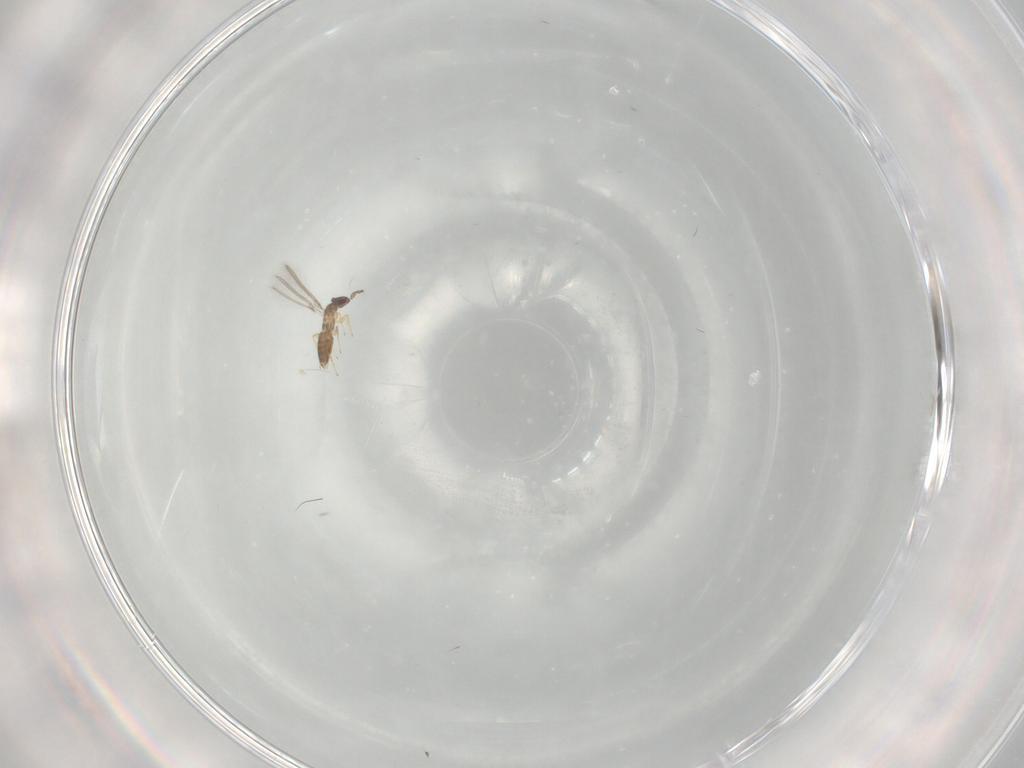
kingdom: Animalia
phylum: Arthropoda
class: Insecta
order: Hymenoptera
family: Mymaridae
